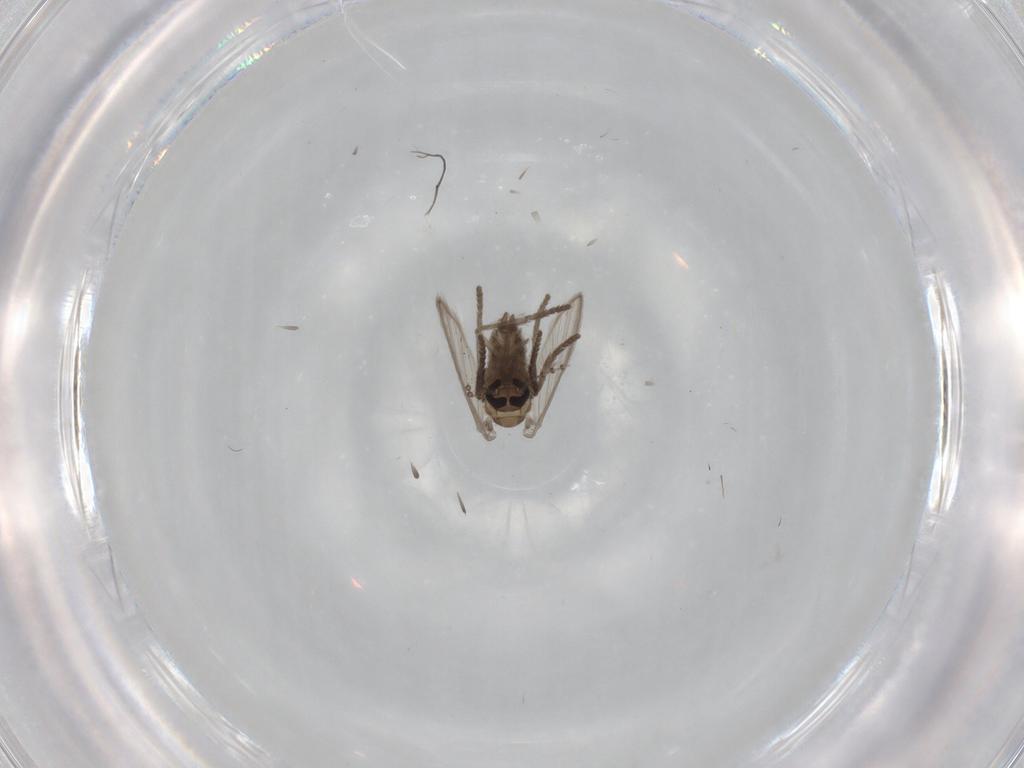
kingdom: Animalia
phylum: Arthropoda
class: Insecta
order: Diptera
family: Psychodidae
